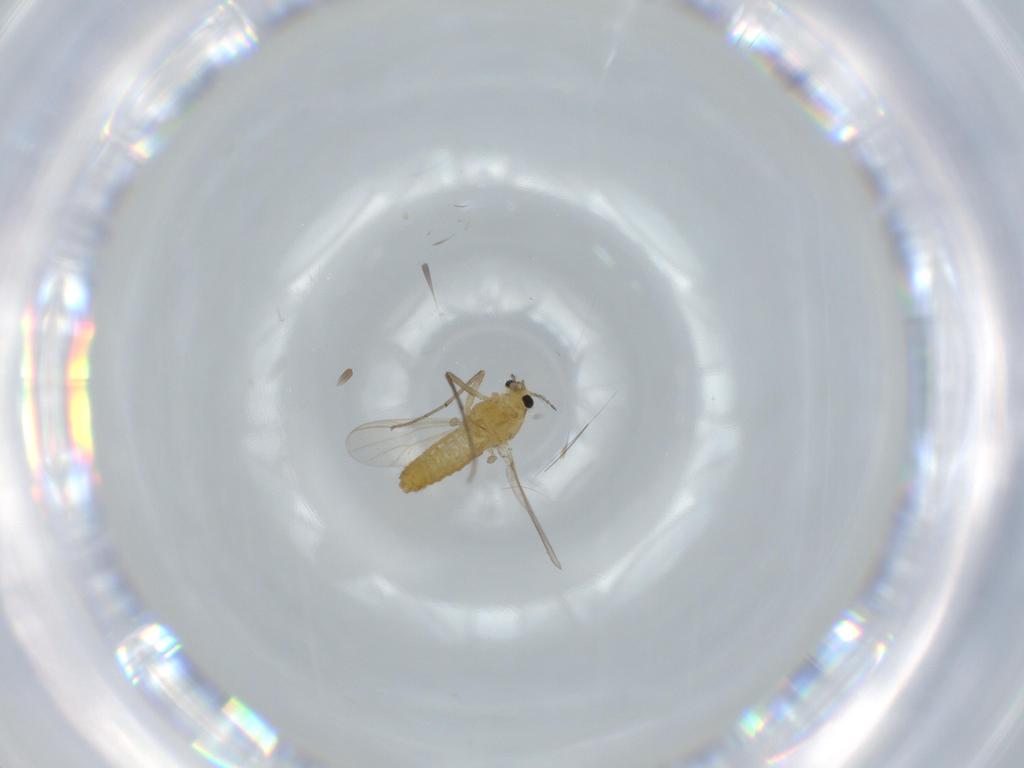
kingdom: Animalia
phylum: Arthropoda
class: Insecta
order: Diptera
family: Chironomidae
